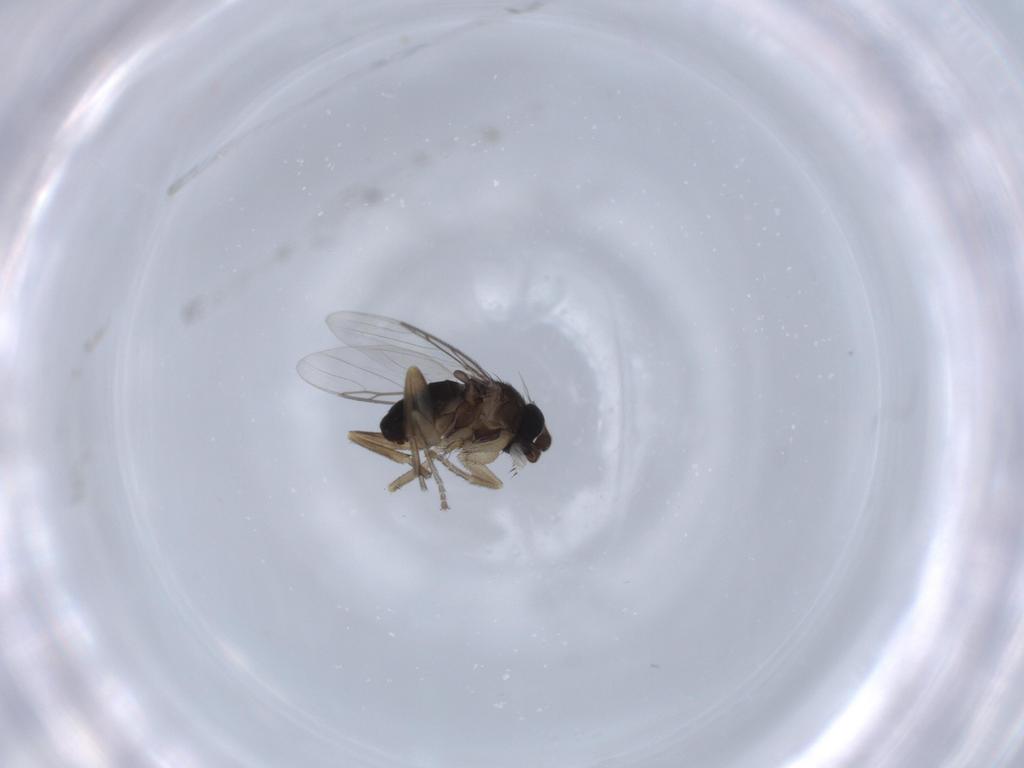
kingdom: Animalia
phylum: Arthropoda
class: Insecta
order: Diptera
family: Phoridae
